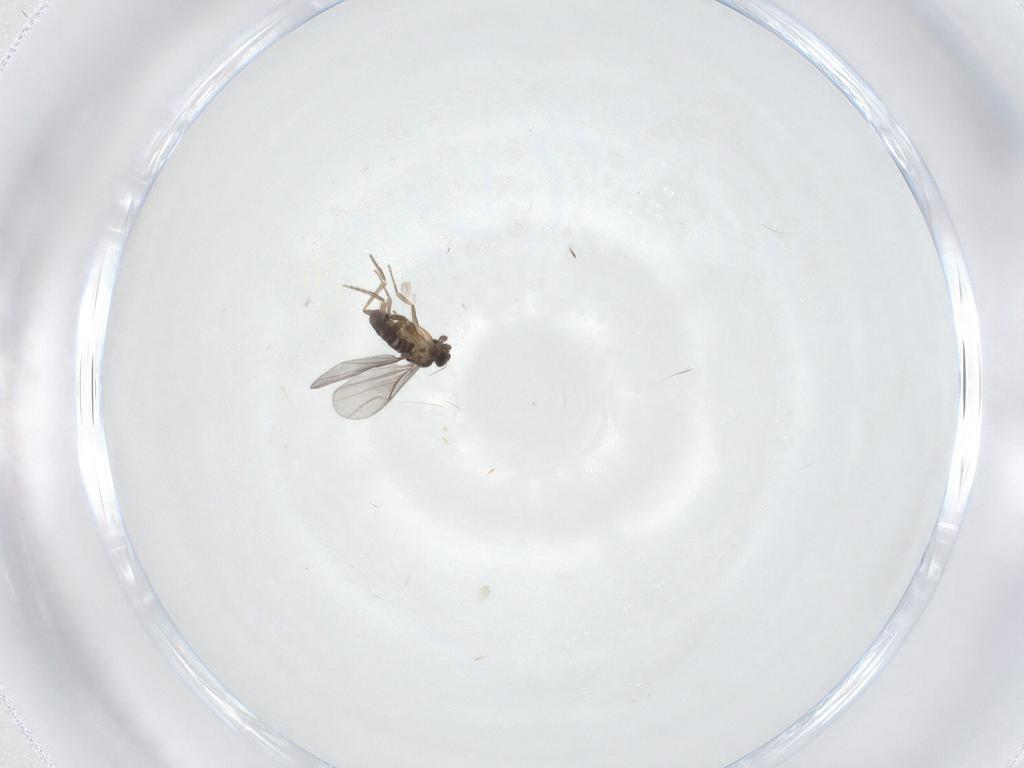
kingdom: Animalia
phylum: Arthropoda
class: Insecta
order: Diptera
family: Phoridae
